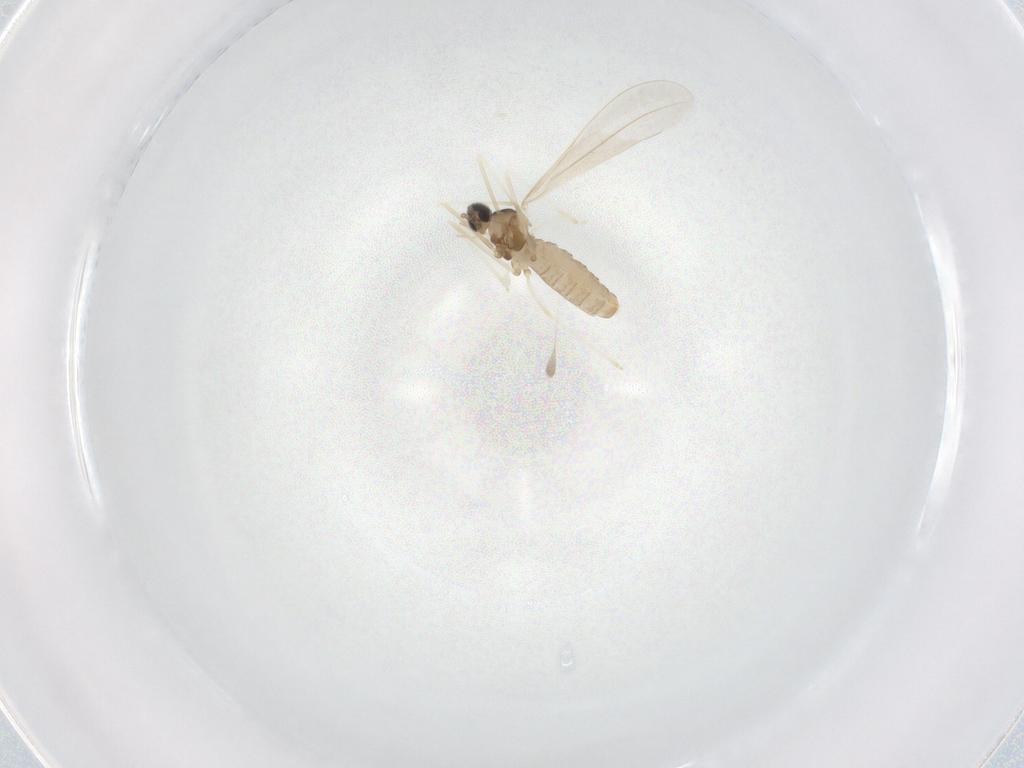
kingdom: Animalia
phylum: Arthropoda
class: Insecta
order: Diptera
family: Cecidomyiidae
